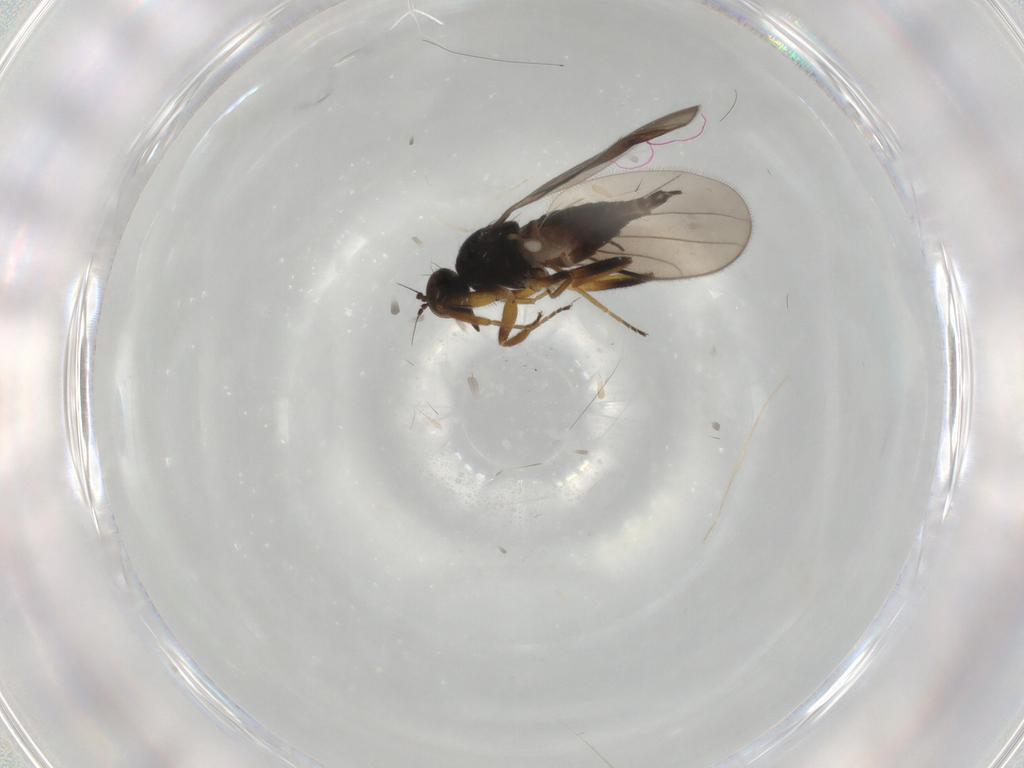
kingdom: Animalia
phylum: Arthropoda
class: Insecta
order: Diptera
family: Hybotidae
